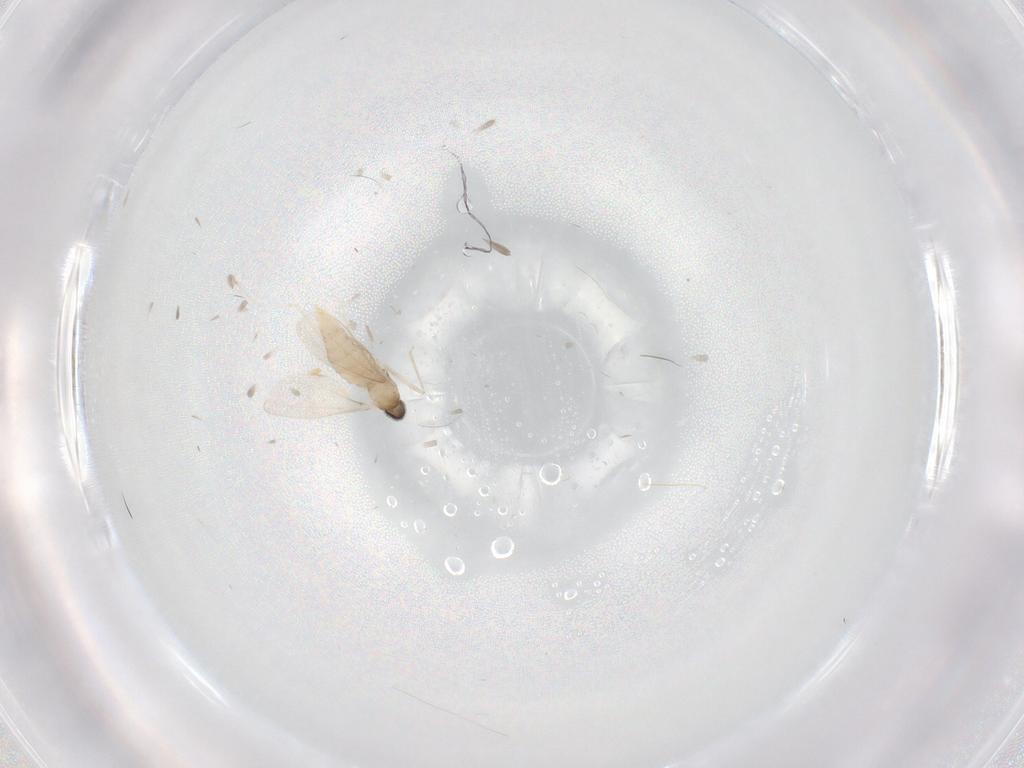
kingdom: Animalia
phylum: Arthropoda
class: Insecta
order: Diptera
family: Cecidomyiidae
